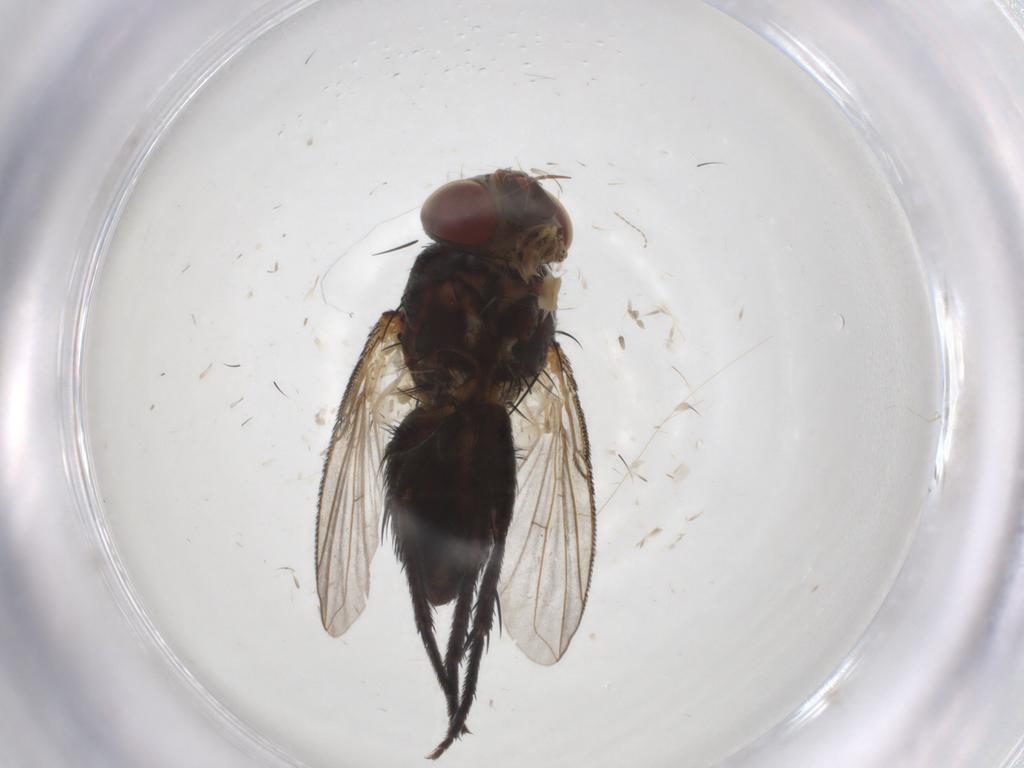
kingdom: Animalia
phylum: Arthropoda
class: Insecta
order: Diptera
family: Tachinidae
